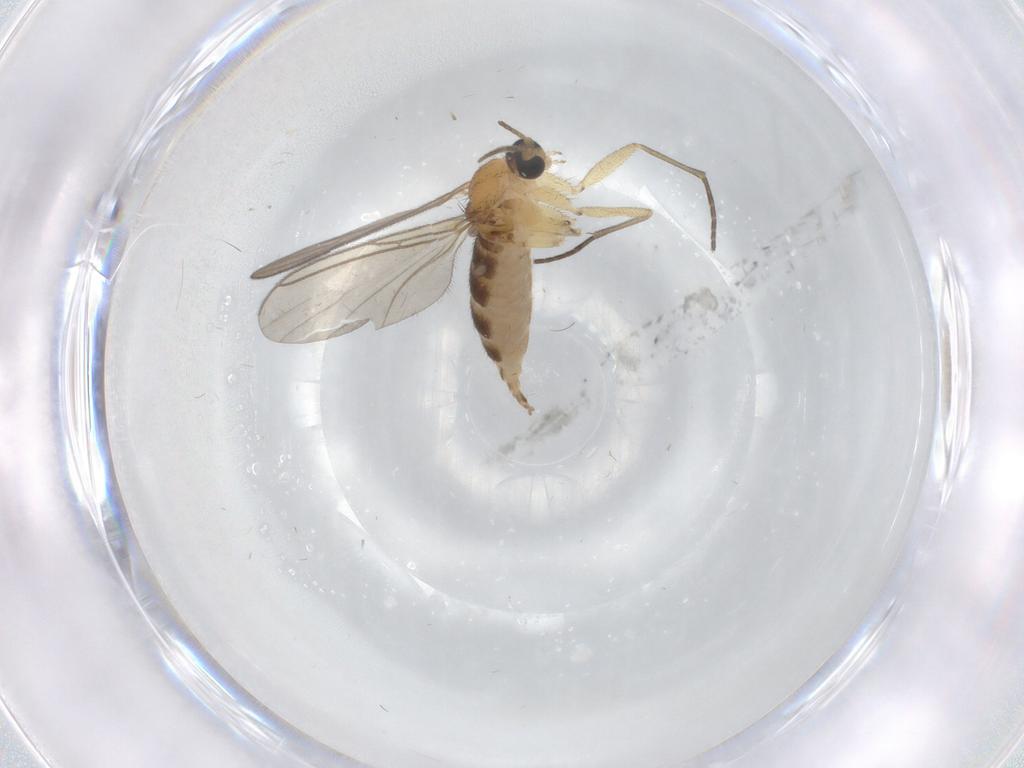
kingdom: Animalia
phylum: Arthropoda
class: Insecta
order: Diptera
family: Sciaridae
